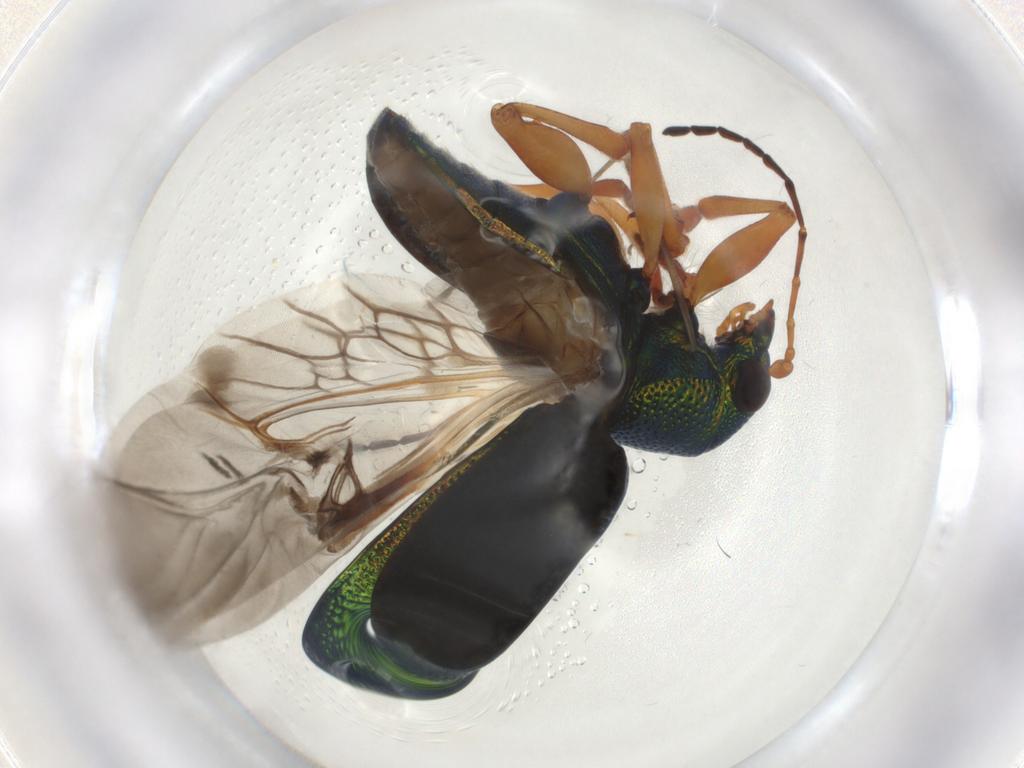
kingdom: Animalia
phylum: Arthropoda
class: Insecta
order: Coleoptera
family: Chrysomelidae
